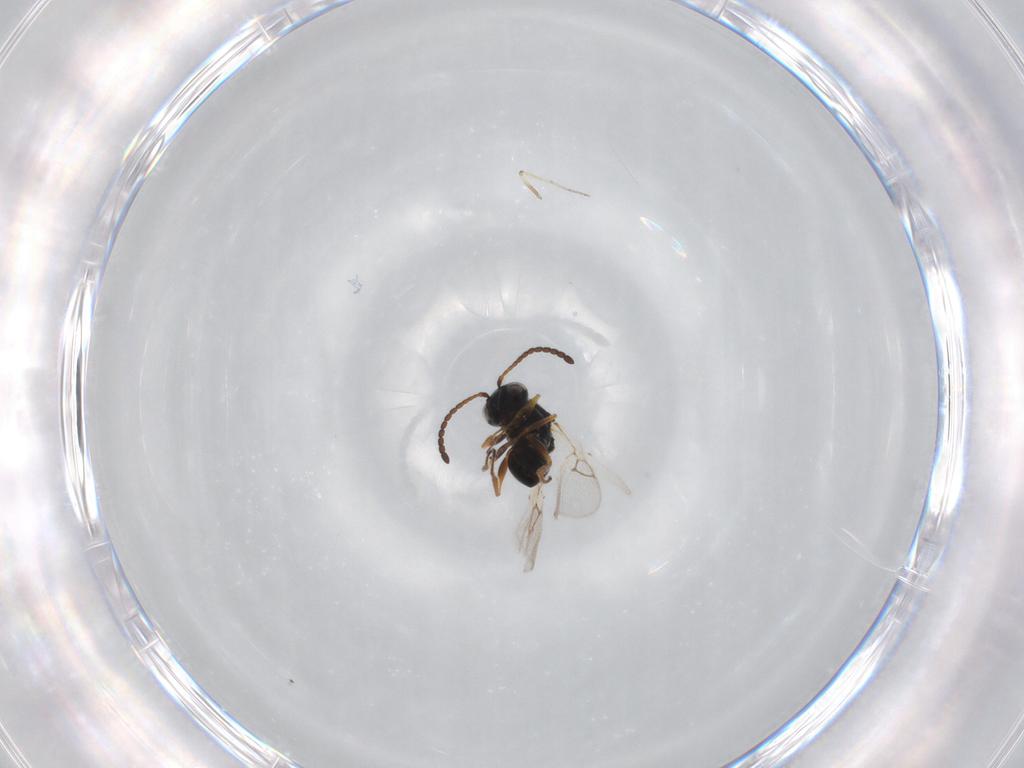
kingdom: Animalia
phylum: Arthropoda
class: Insecta
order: Hymenoptera
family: Figitidae
